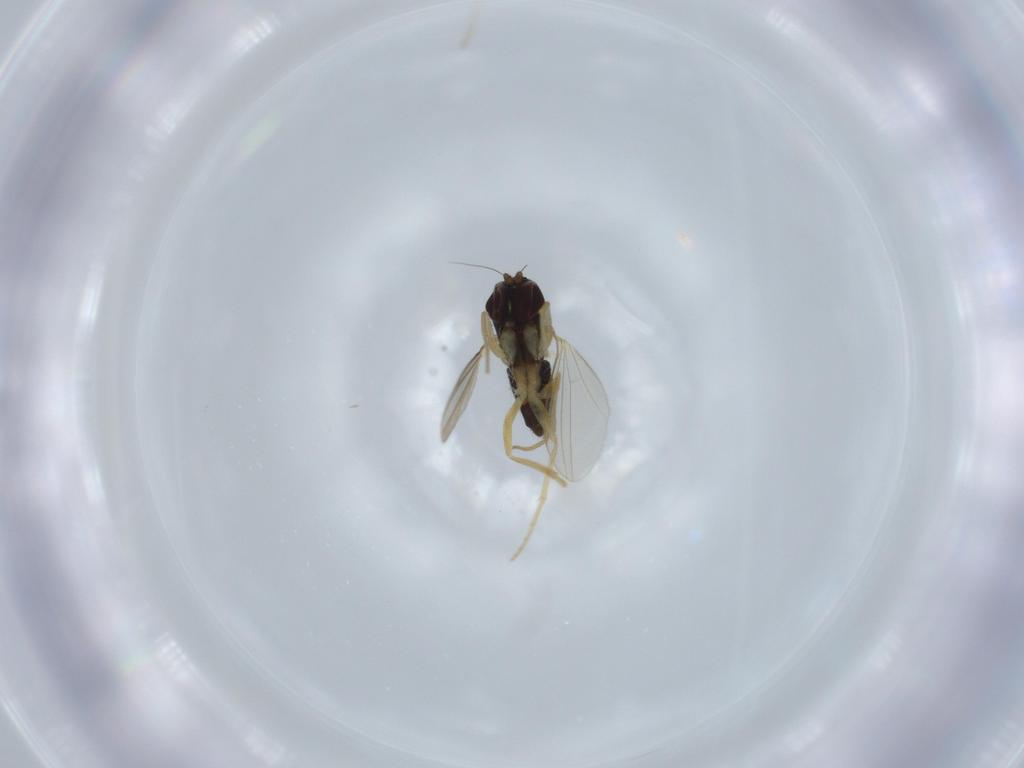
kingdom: Animalia
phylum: Arthropoda
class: Insecta
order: Diptera
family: Dolichopodidae
